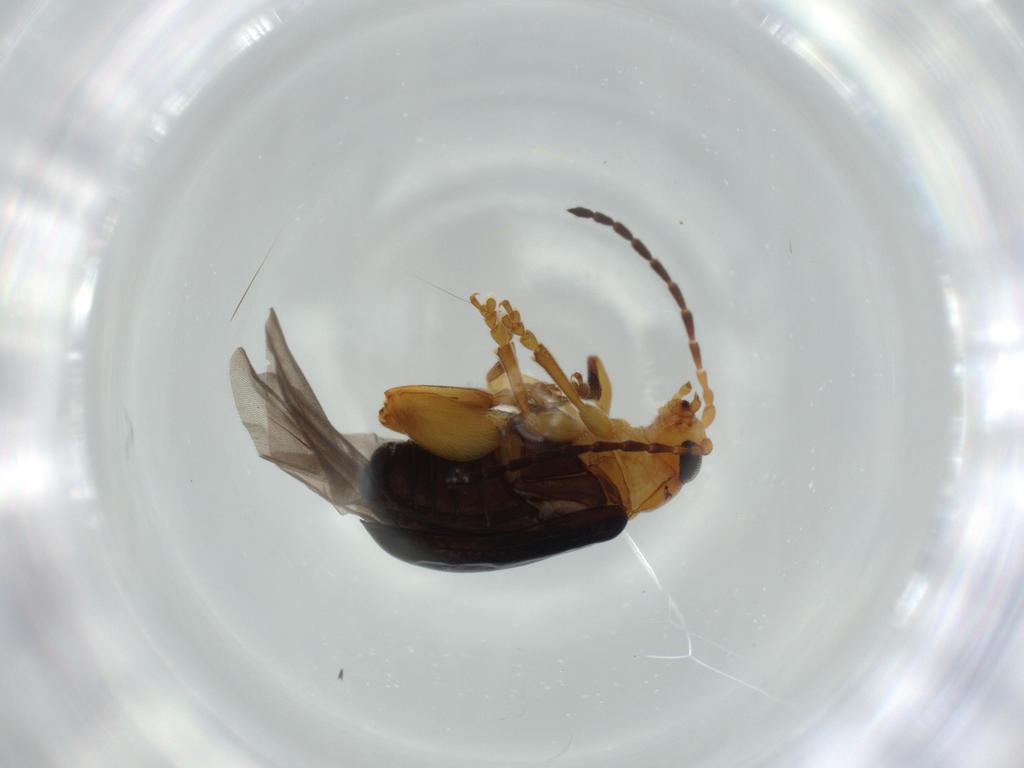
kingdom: Animalia
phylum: Arthropoda
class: Insecta
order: Coleoptera
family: Chrysomelidae
